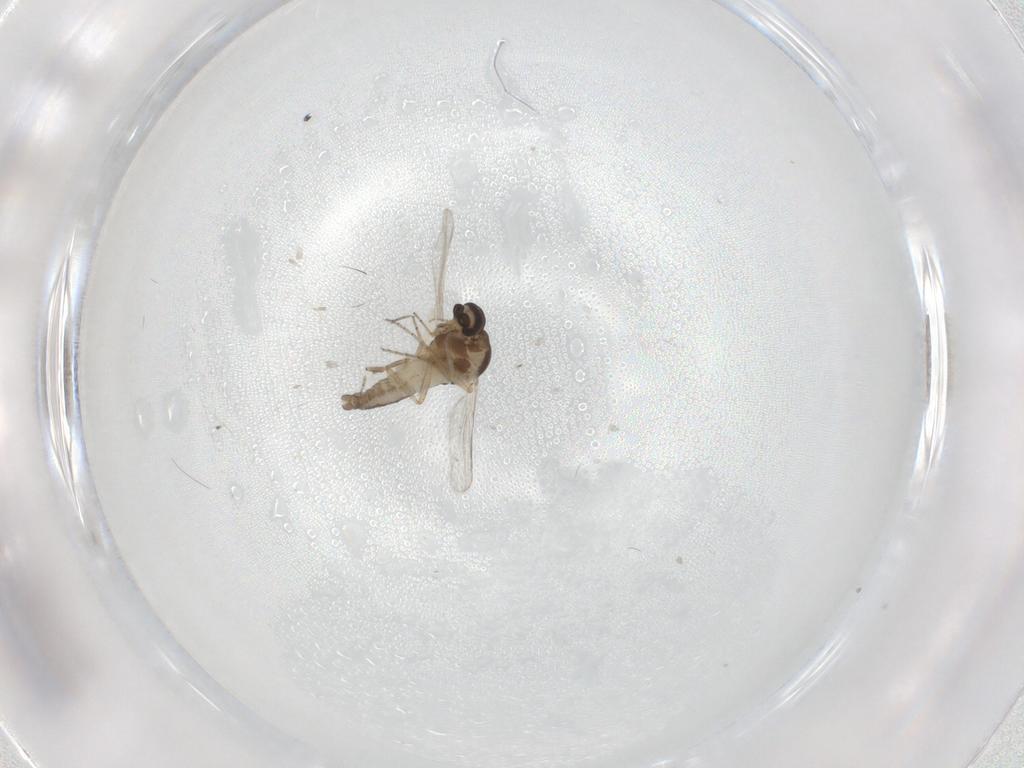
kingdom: Animalia
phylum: Arthropoda
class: Insecta
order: Diptera
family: Ceratopogonidae
